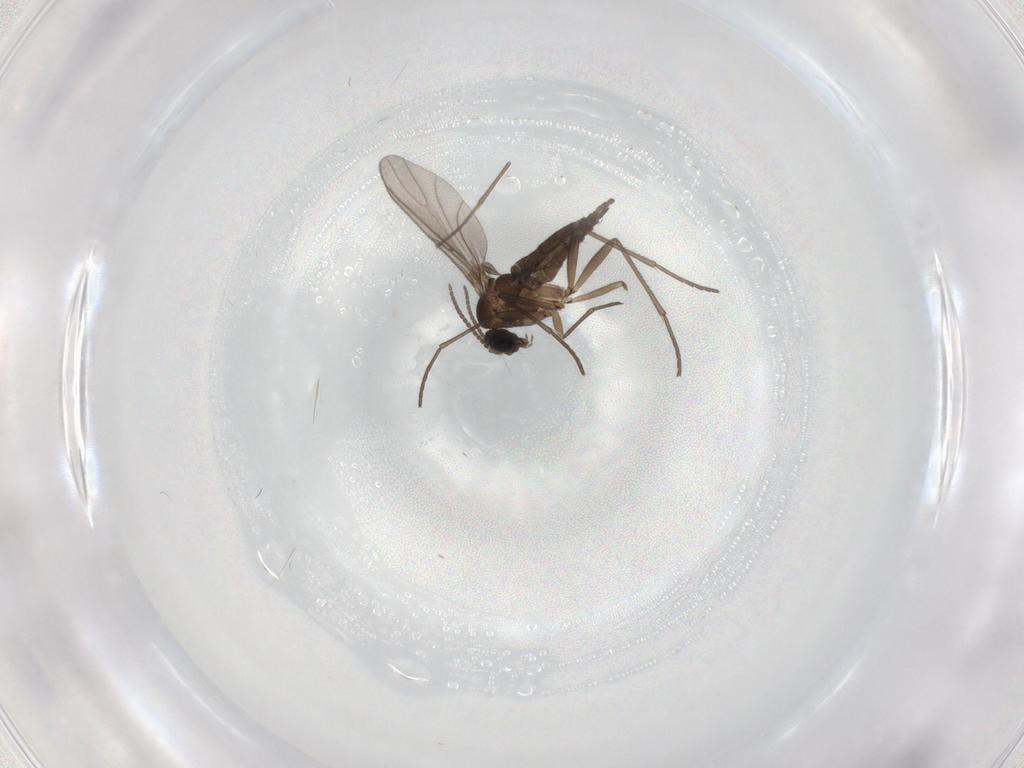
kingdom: Animalia
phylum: Arthropoda
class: Insecta
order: Diptera
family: Sciaridae
